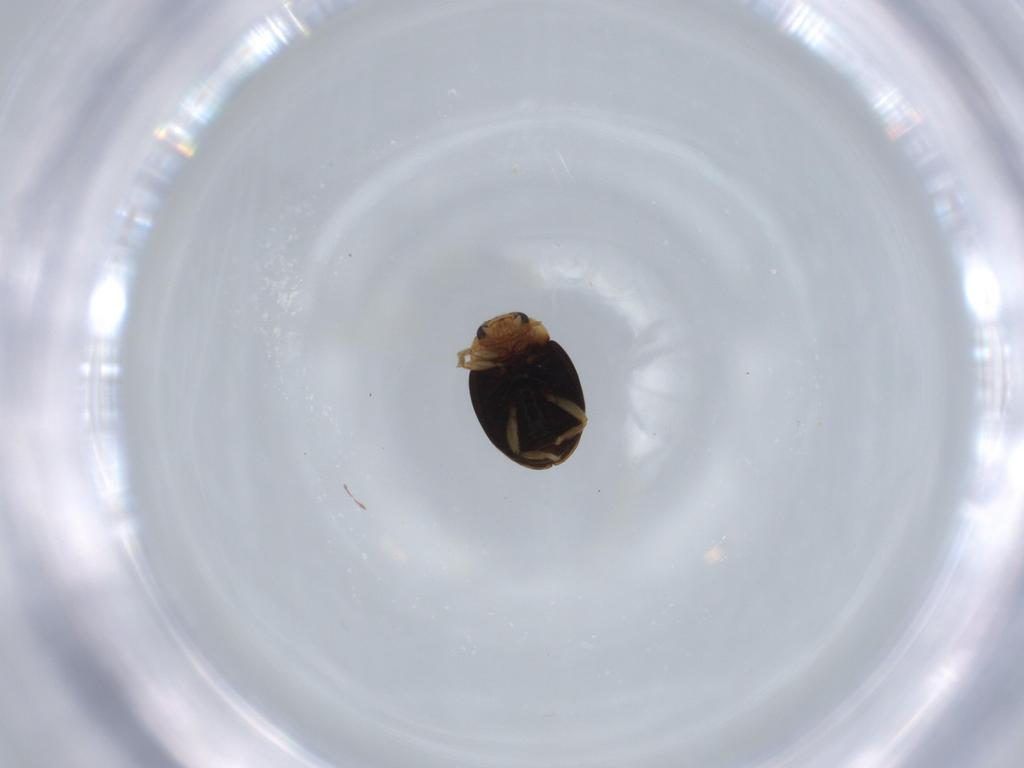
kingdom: Animalia
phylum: Arthropoda
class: Insecta
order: Coleoptera
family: Coccinellidae
